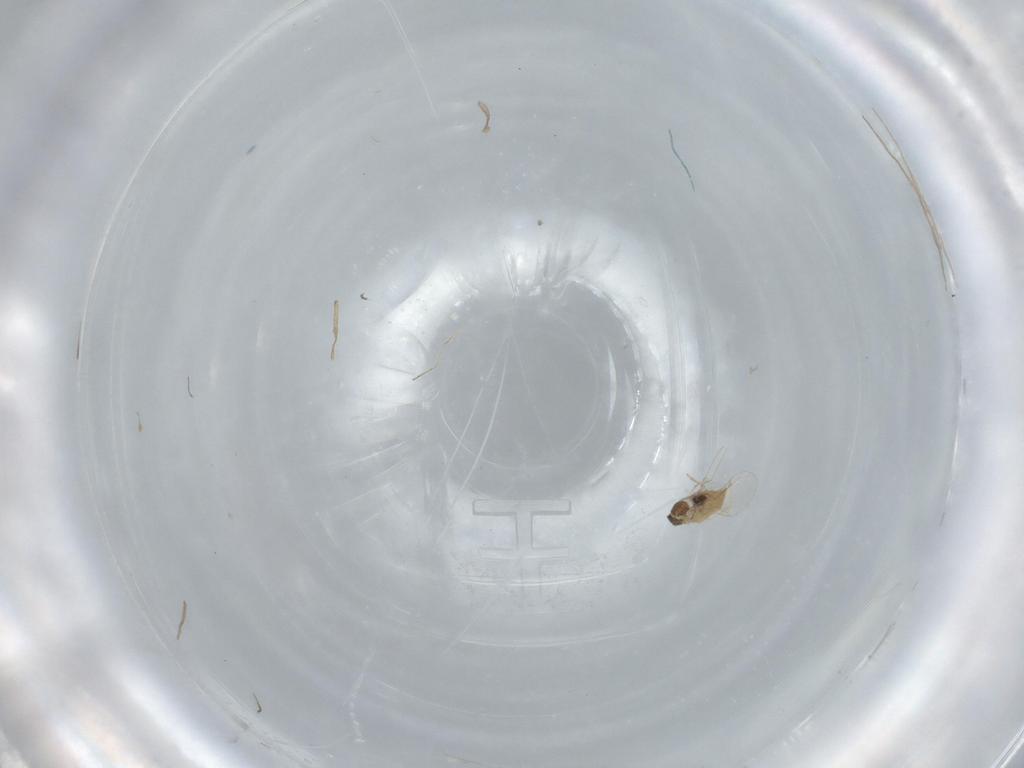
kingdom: Animalia
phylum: Arthropoda
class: Insecta
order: Diptera
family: Cecidomyiidae
